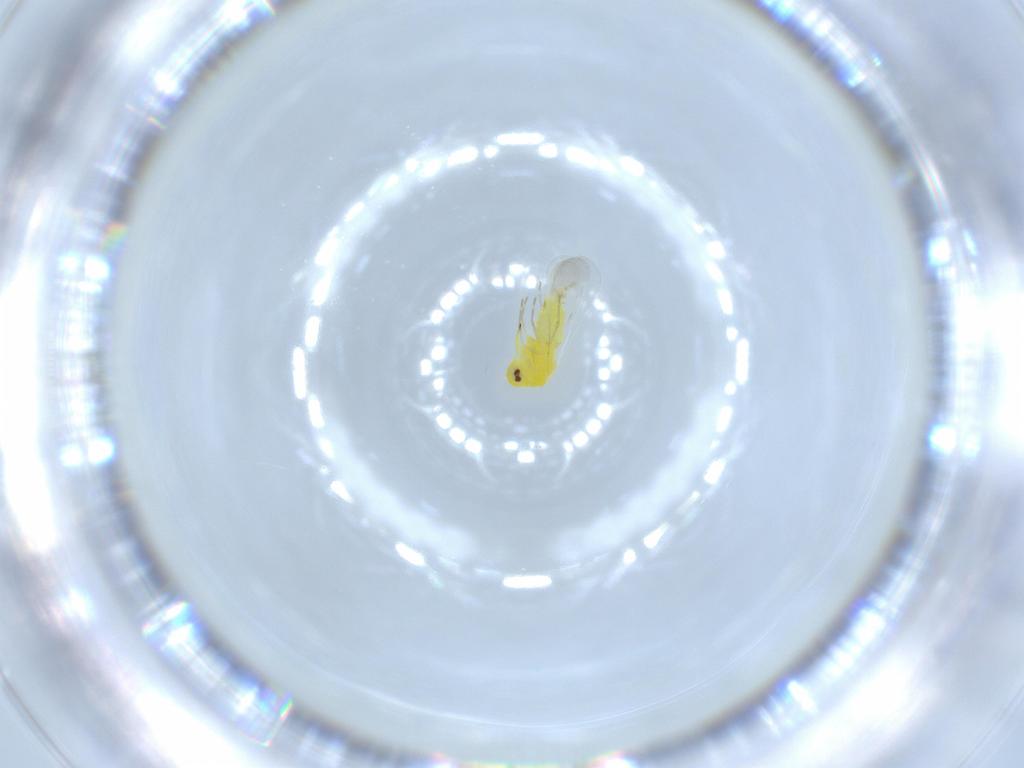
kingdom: Animalia
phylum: Arthropoda
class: Insecta
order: Hemiptera
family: Aleyrodidae
